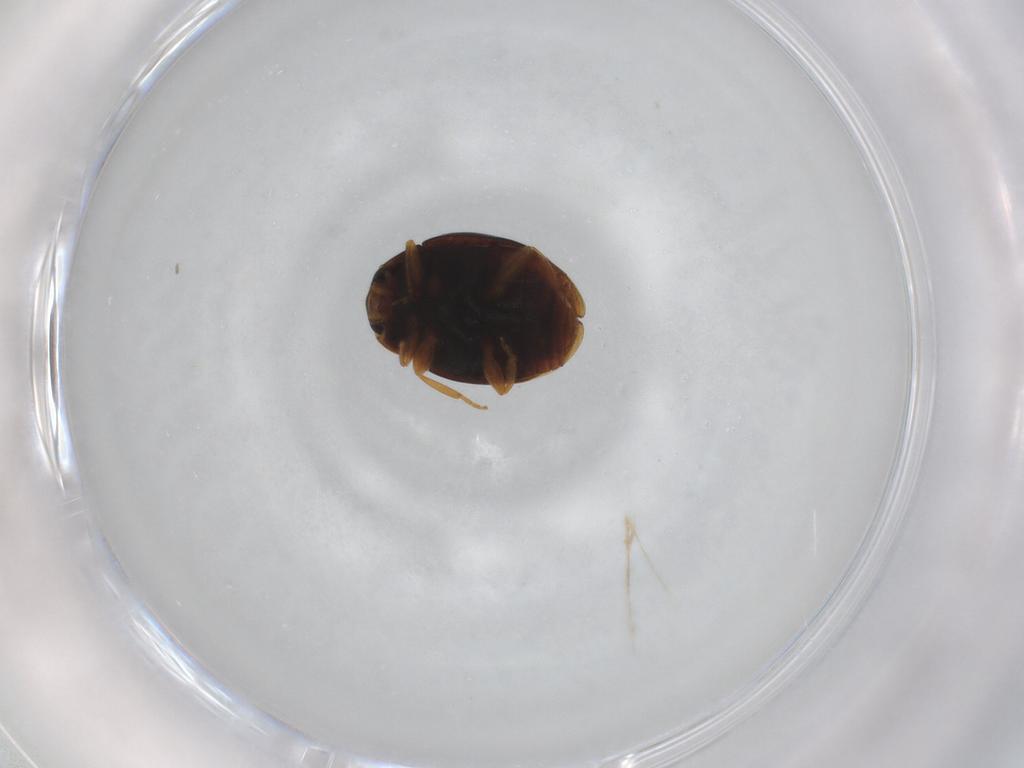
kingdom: Animalia
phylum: Arthropoda
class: Insecta
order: Coleoptera
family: Coccinellidae
